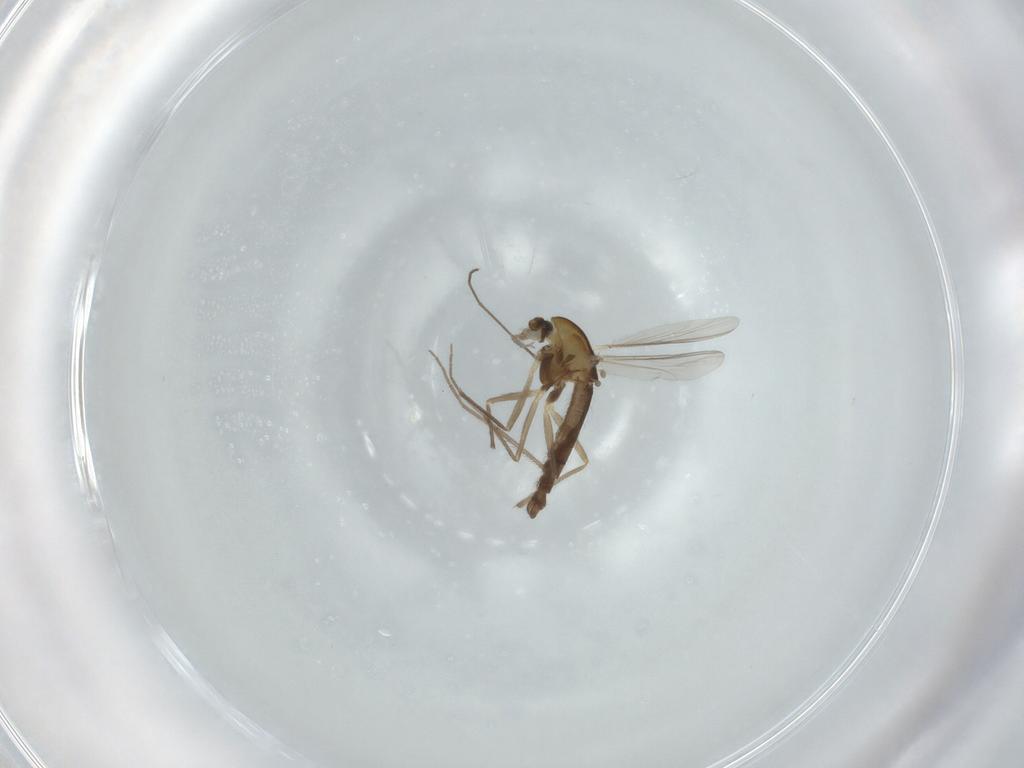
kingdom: Animalia
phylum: Arthropoda
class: Insecta
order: Diptera
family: Chironomidae
